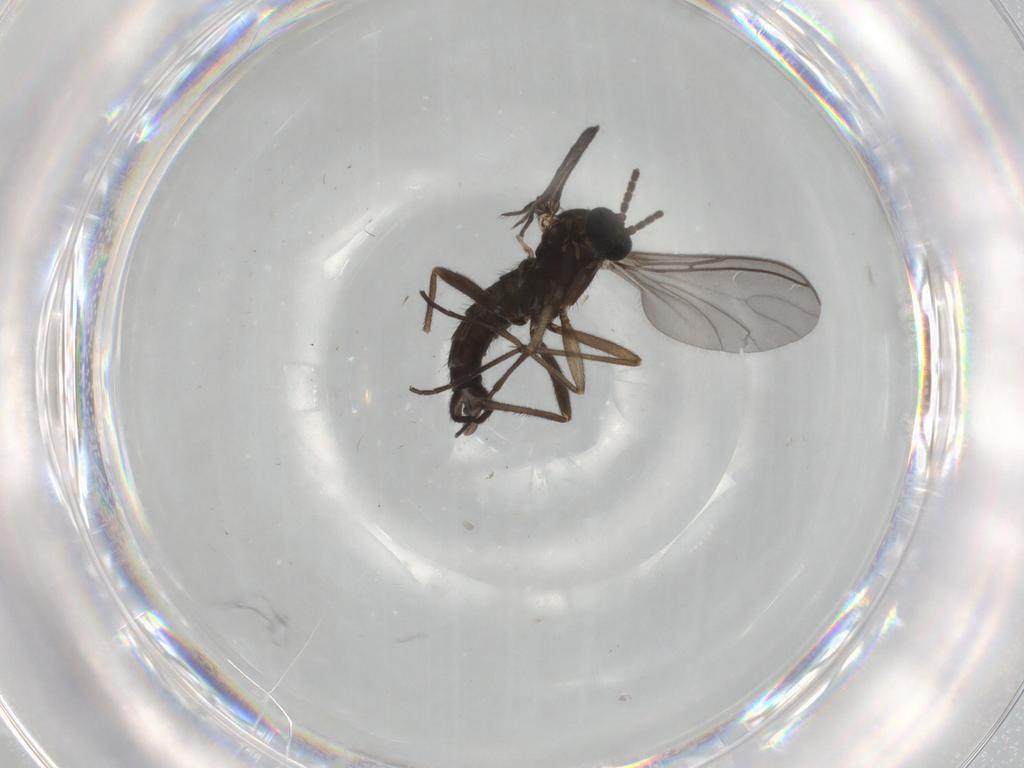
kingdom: Animalia
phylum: Arthropoda
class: Insecta
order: Diptera
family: Sciaridae
